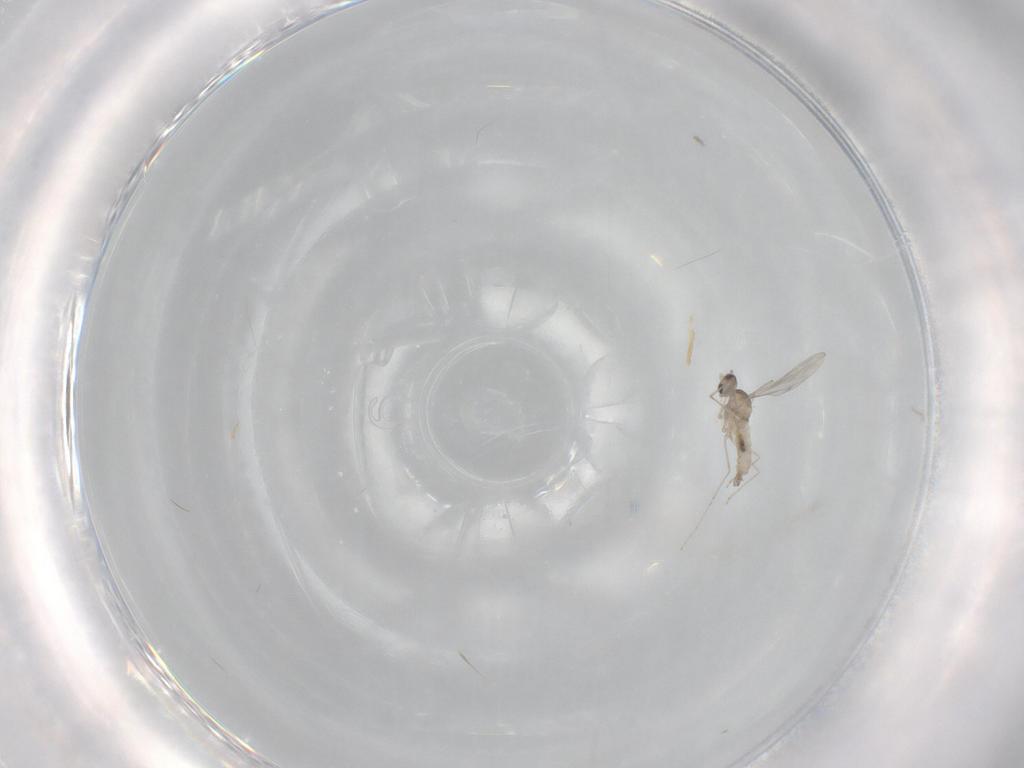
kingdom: Animalia
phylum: Arthropoda
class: Insecta
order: Diptera
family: Chironomidae
